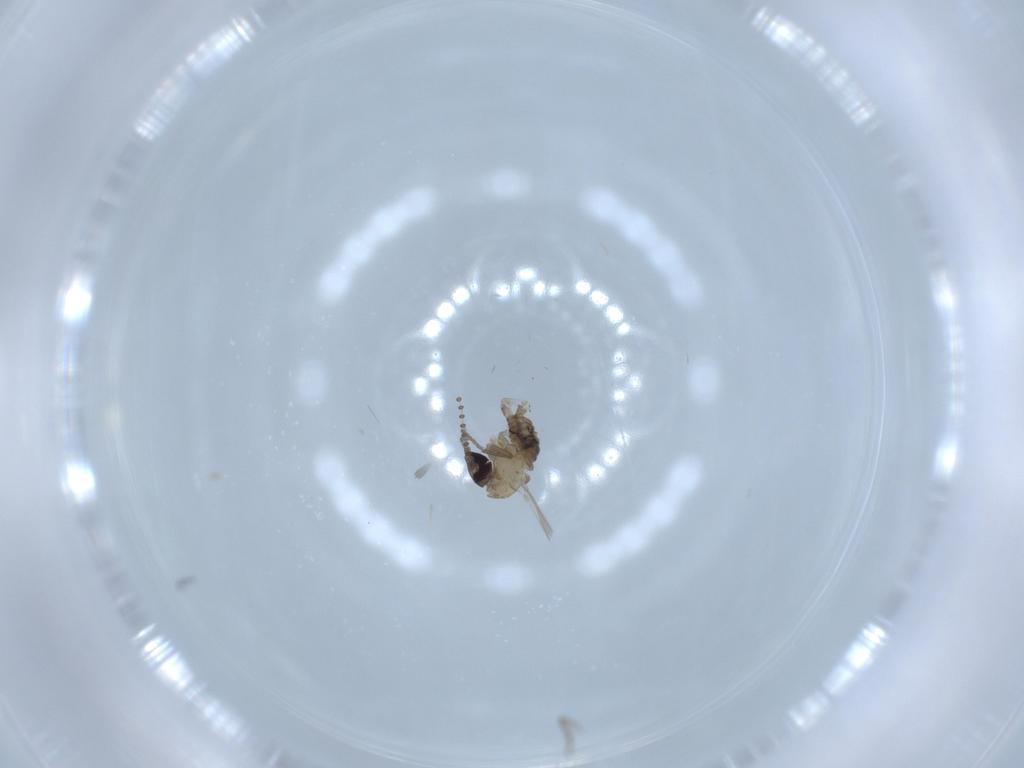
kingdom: Animalia
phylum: Arthropoda
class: Insecta
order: Diptera
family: Psychodidae
